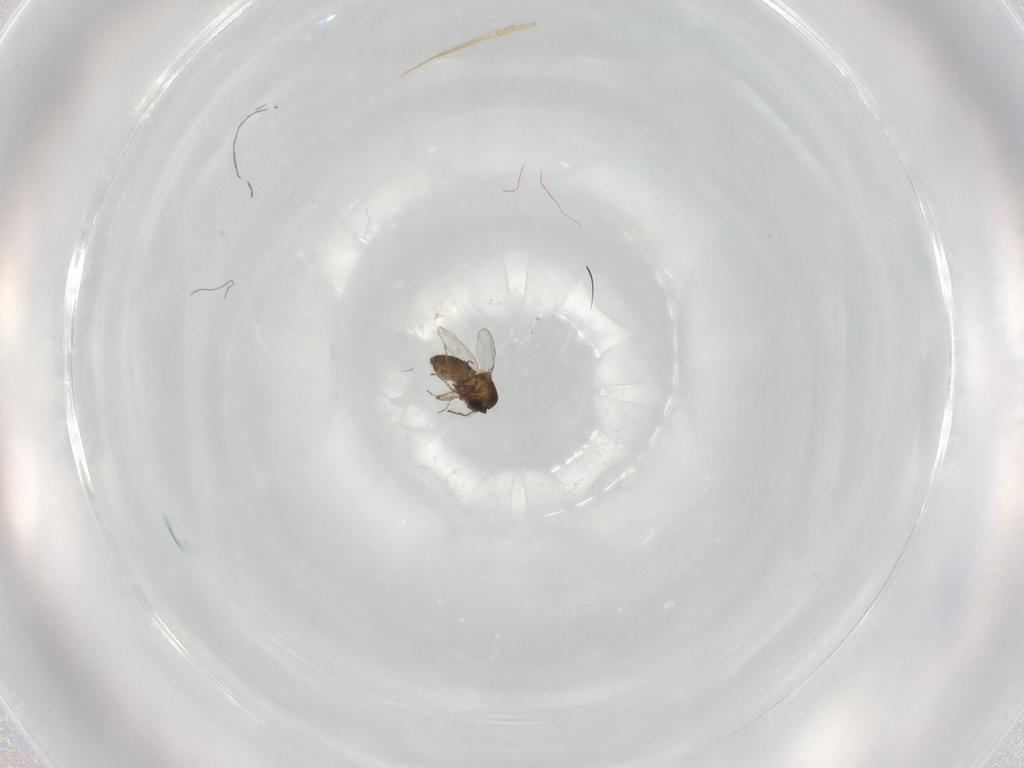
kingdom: Animalia
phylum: Arthropoda
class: Insecta
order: Diptera
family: Ceratopogonidae
